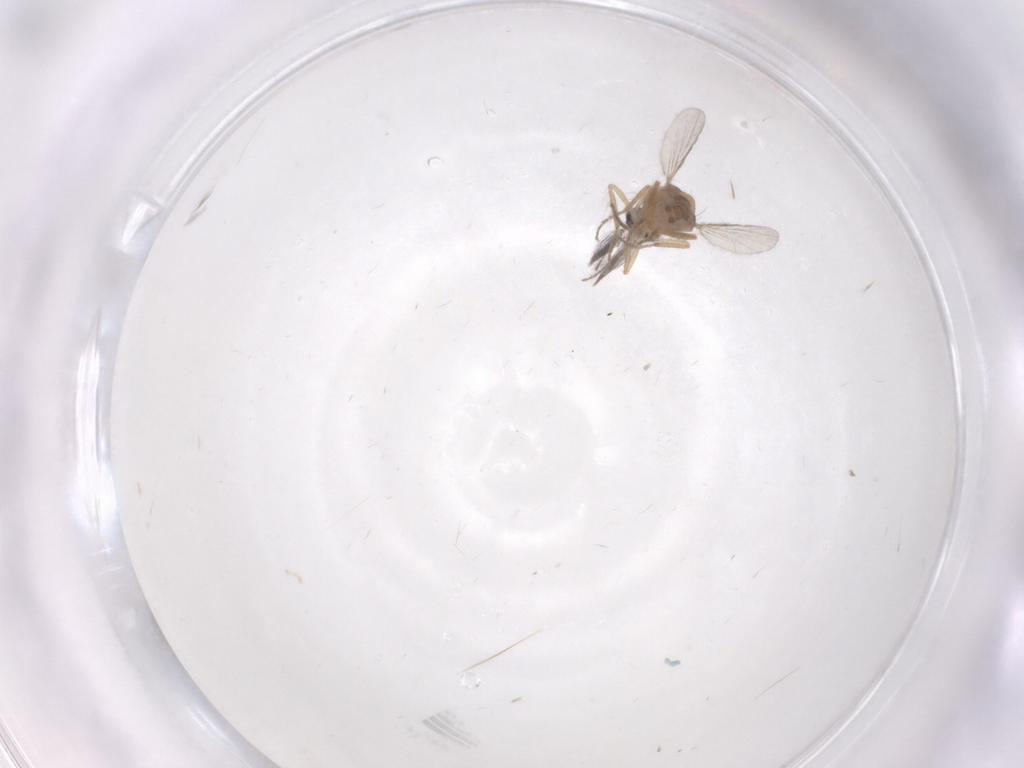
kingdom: Animalia
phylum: Arthropoda
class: Insecta
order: Diptera
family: Ceratopogonidae
